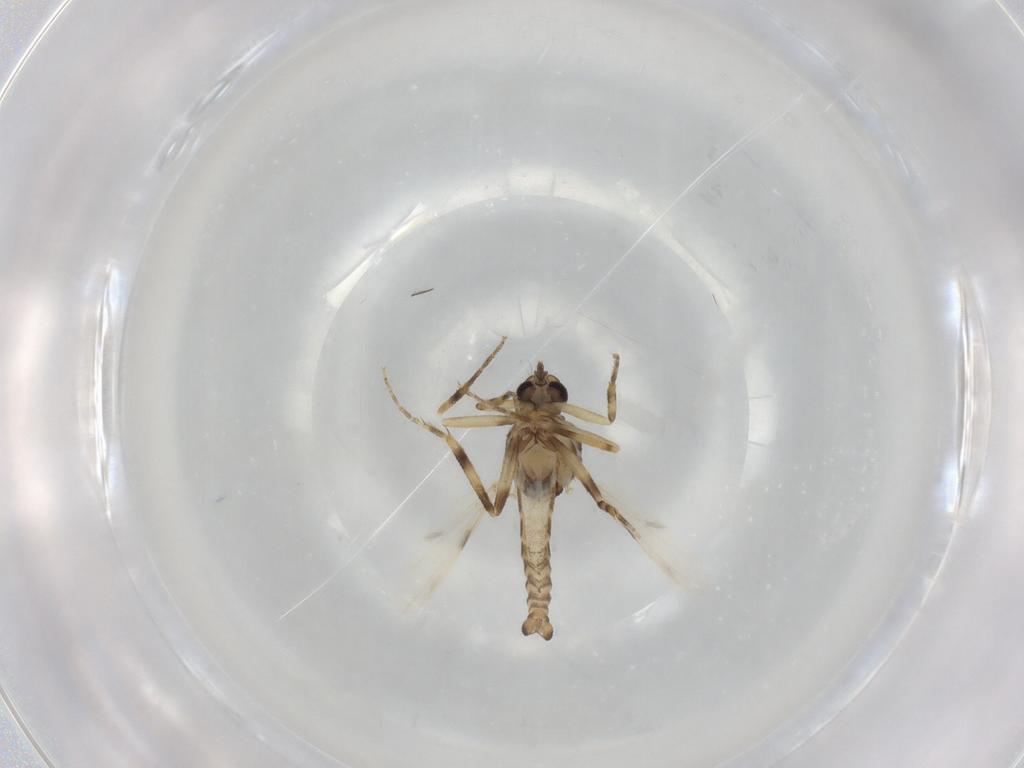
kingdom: Animalia
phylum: Arthropoda
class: Insecta
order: Diptera
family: Ceratopogonidae
